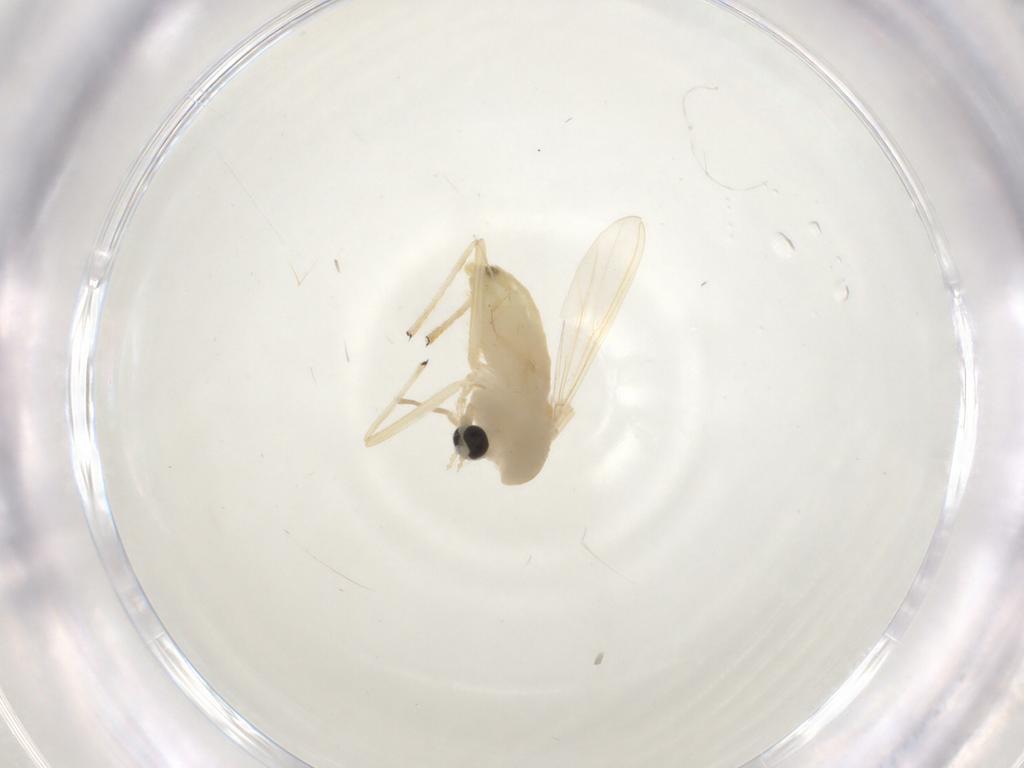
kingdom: Animalia
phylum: Arthropoda
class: Insecta
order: Diptera
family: Chironomidae
